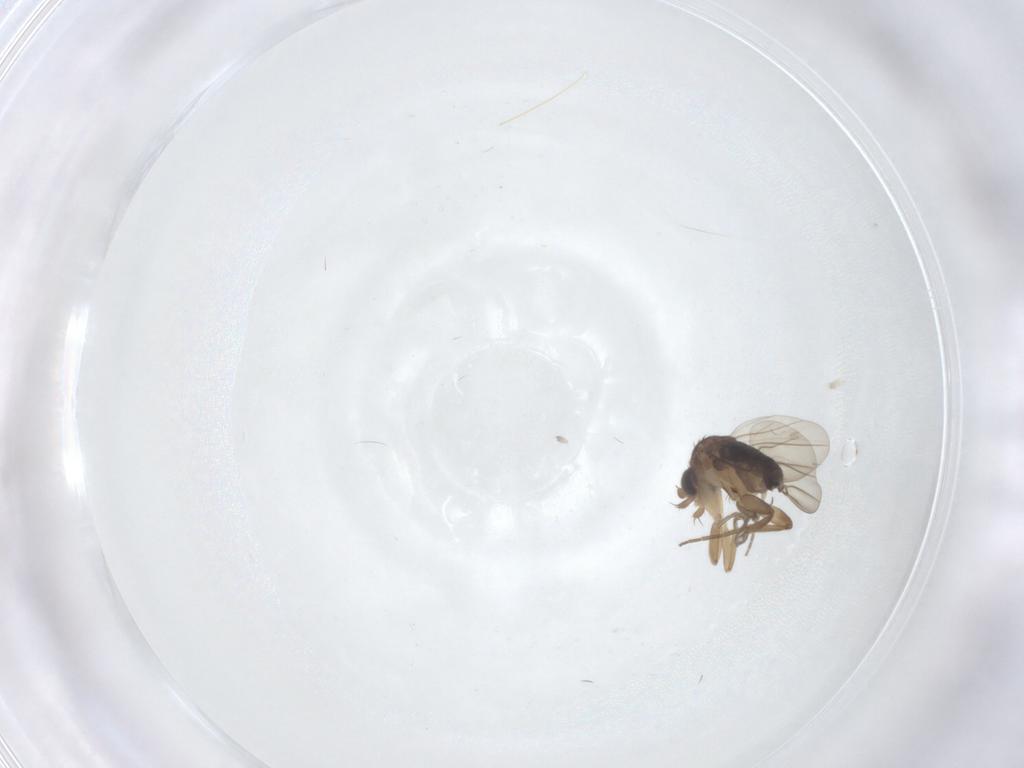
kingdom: Animalia
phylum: Arthropoda
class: Insecta
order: Diptera
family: Phoridae
